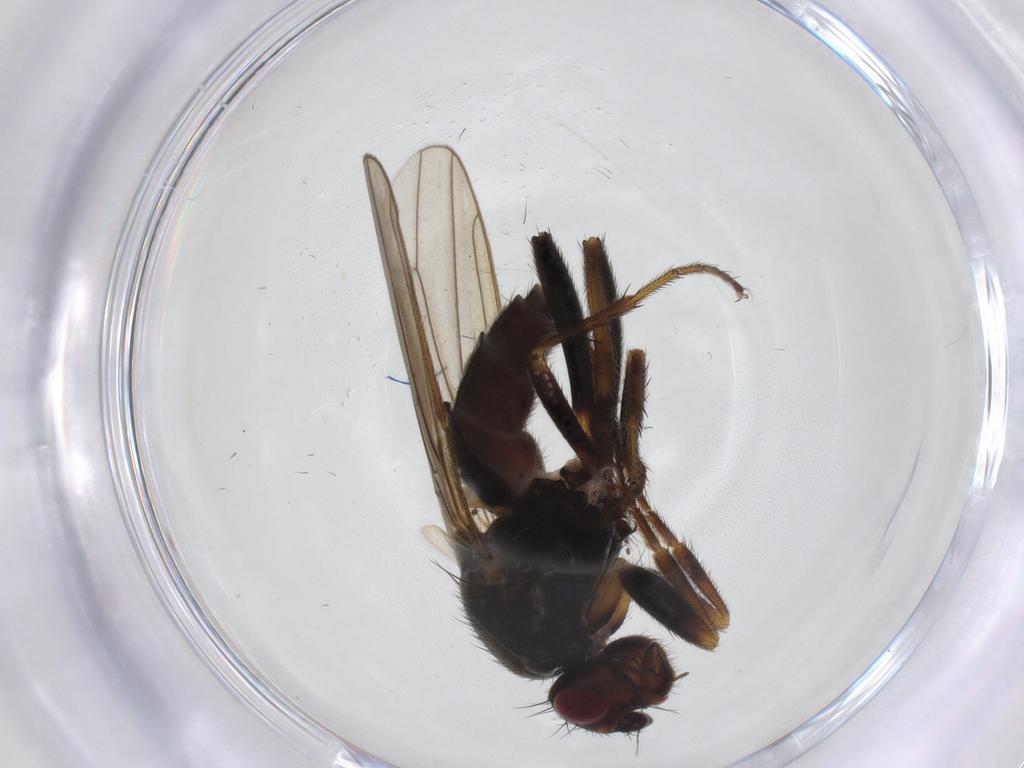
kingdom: Animalia
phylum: Arthropoda
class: Insecta
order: Diptera
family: Sphaeroceridae
